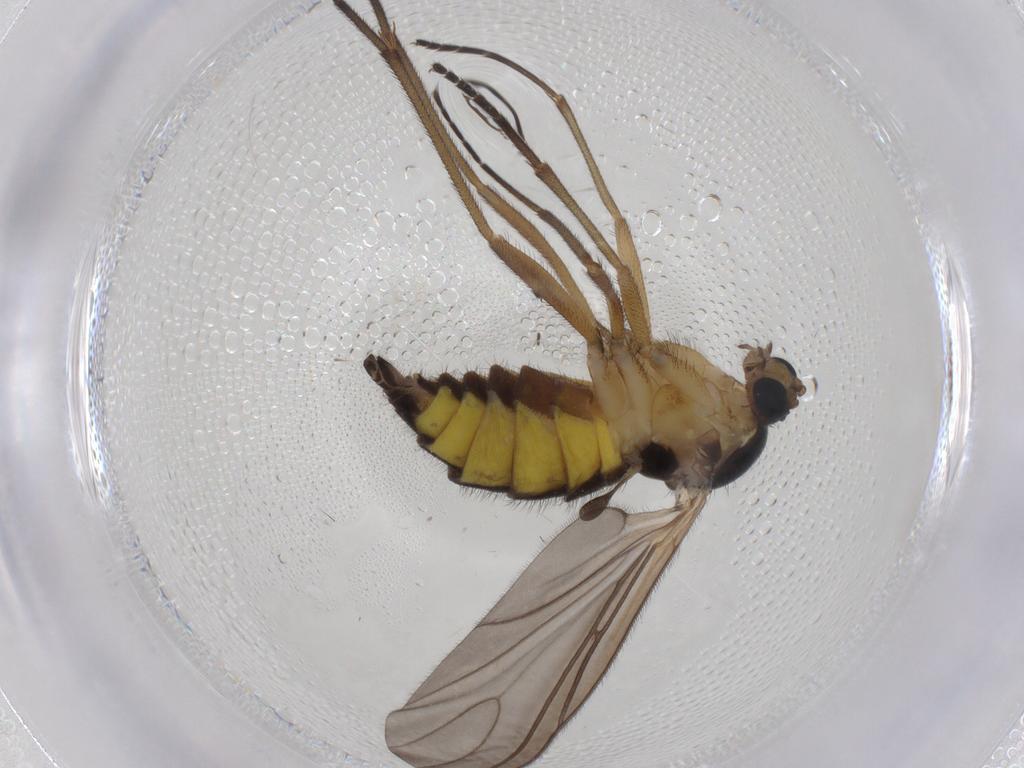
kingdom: Animalia
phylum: Arthropoda
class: Insecta
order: Diptera
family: Sciaridae
